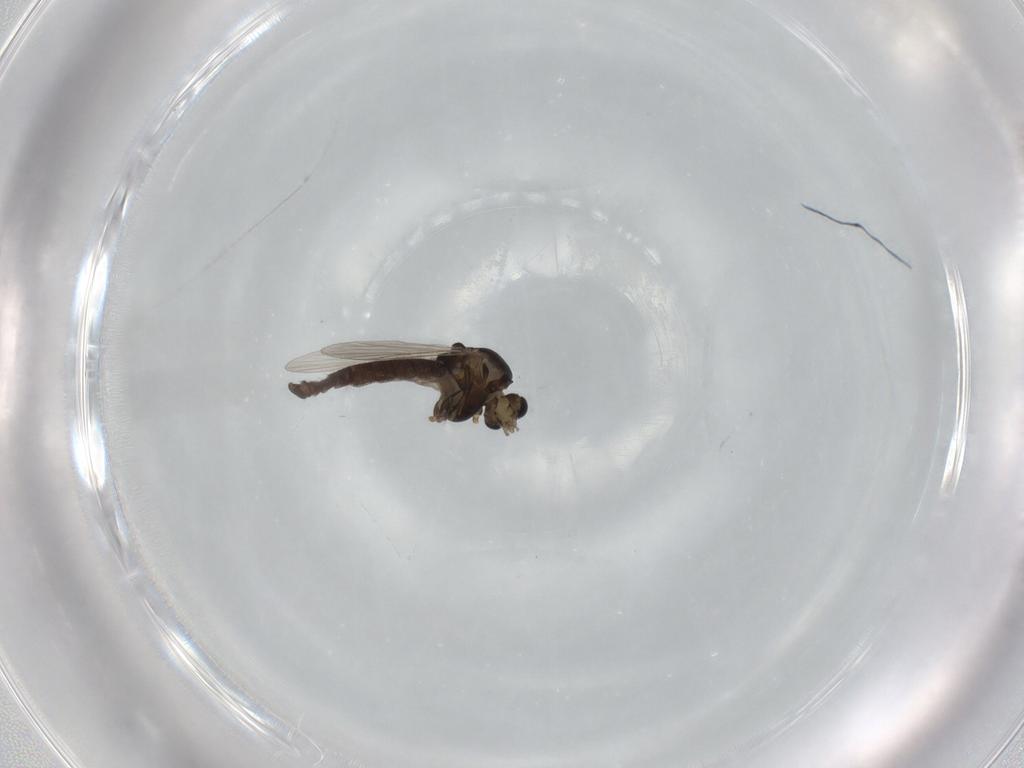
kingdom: Animalia
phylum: Arthropoda
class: Insecta
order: Diptera
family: Chironomidae
